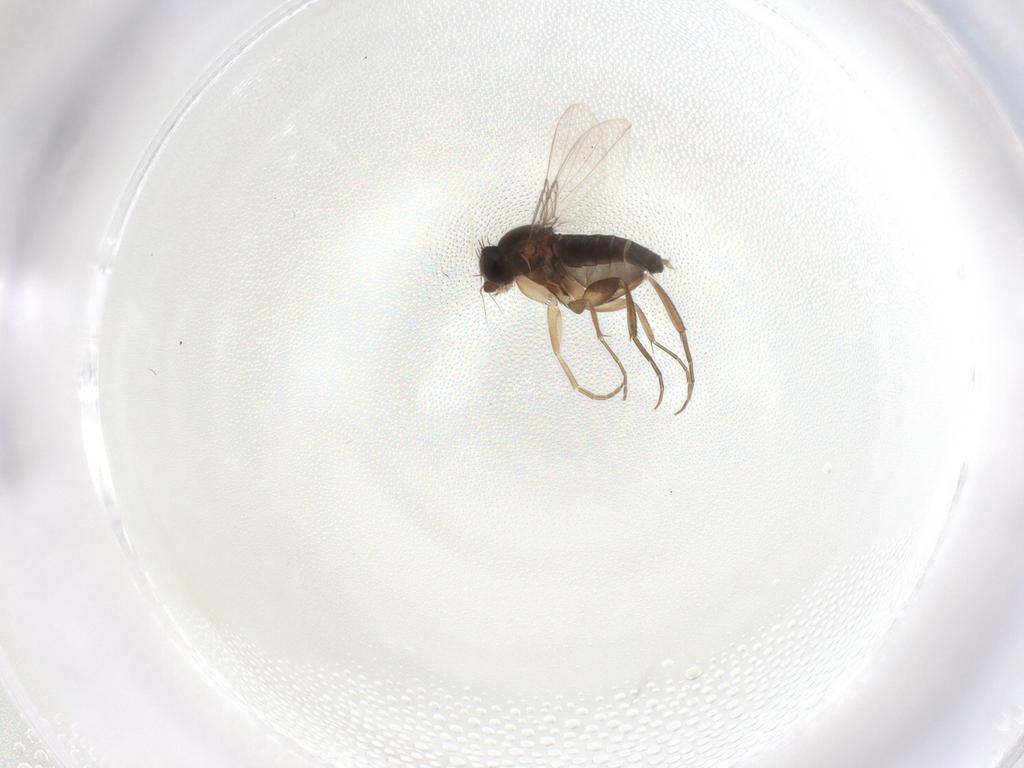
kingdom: Animalia
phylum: Arthropoda
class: Insecta
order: Diptera
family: Phoridae
